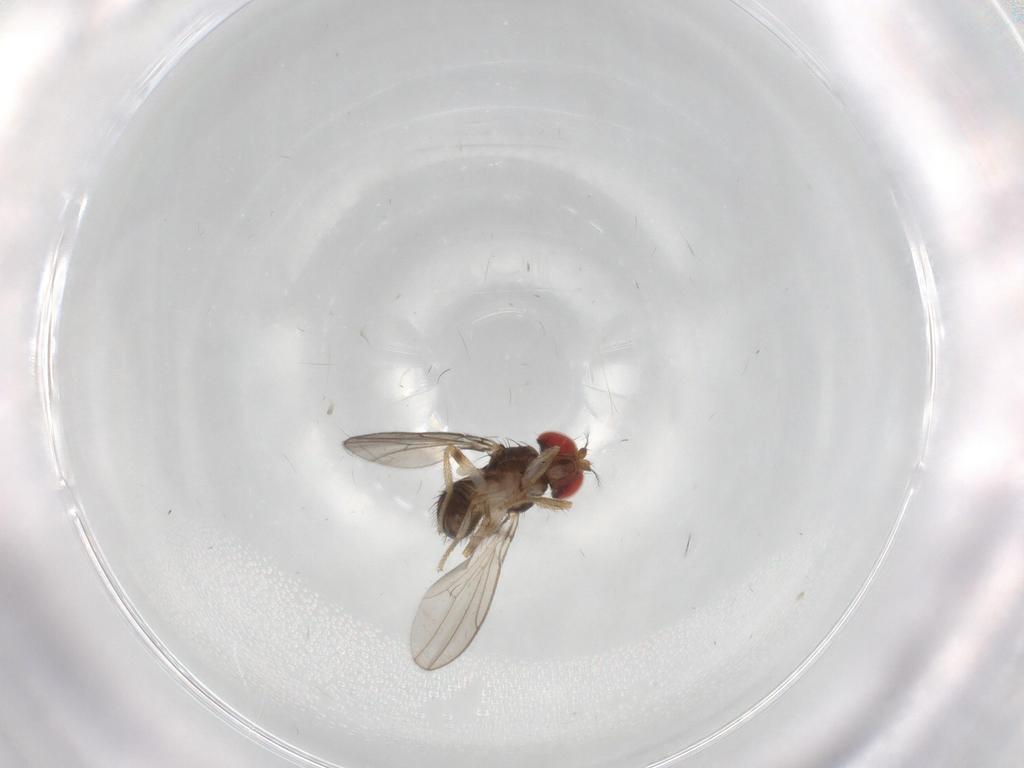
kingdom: Animalia
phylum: Arthropoda
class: Insecta
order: Diptera
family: Drosophilidae
